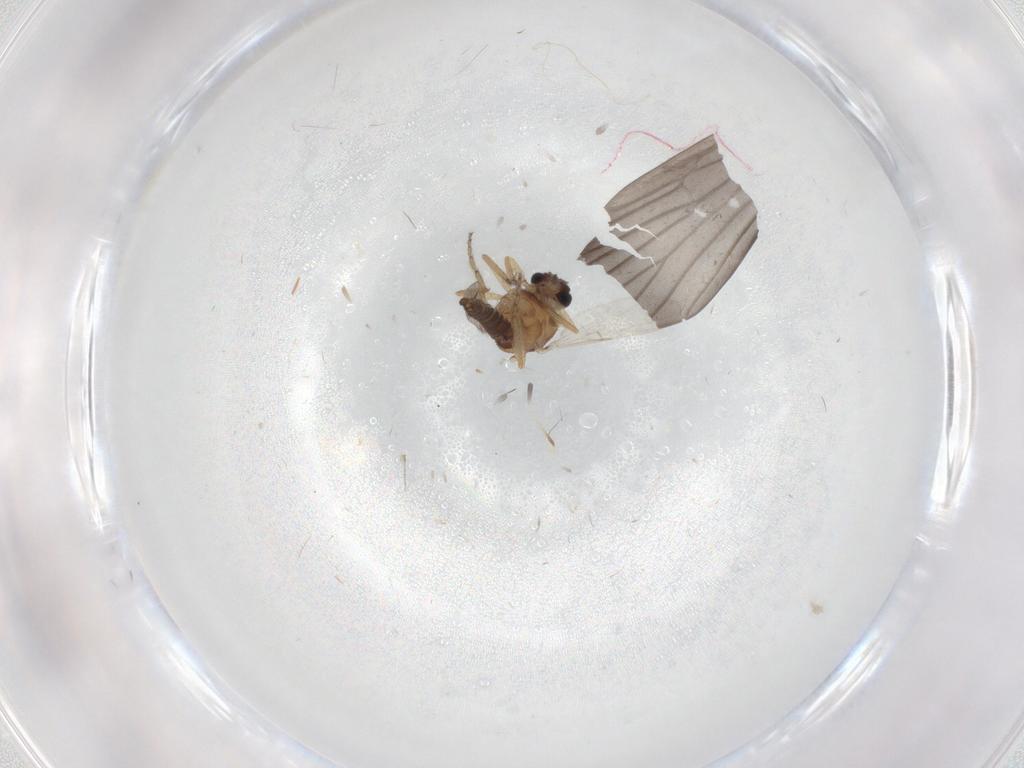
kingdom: Animalia
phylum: Arthropoda
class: Insecta
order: Diptera
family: Ceratopogonidae
